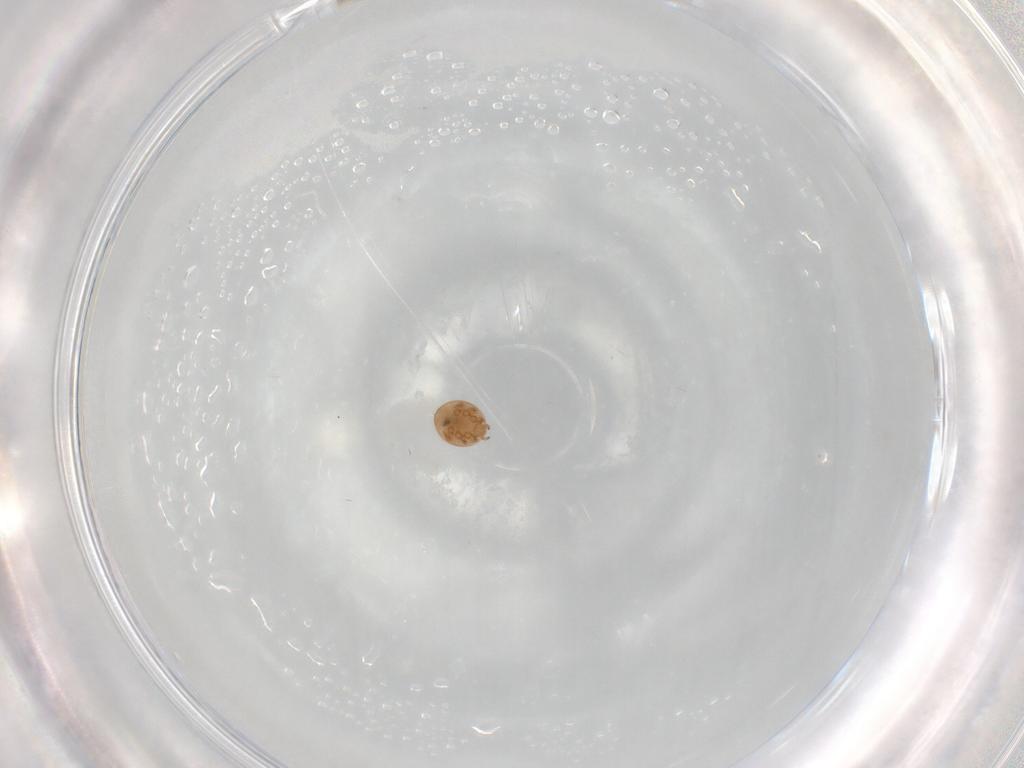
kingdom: Animalia
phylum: Arthropoda
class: Arachnida
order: Mesostigmata
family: Trematuridae
